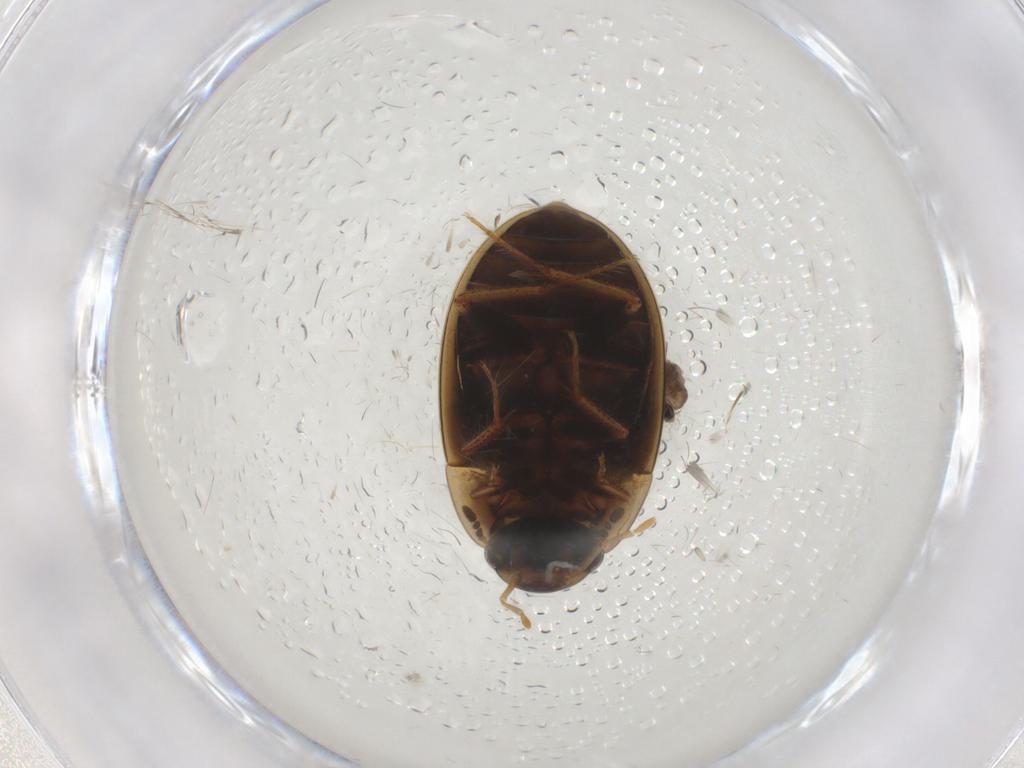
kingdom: Animalia
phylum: Arthropoda
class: Insecta
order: Coleoptera
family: Hydrophilidae
